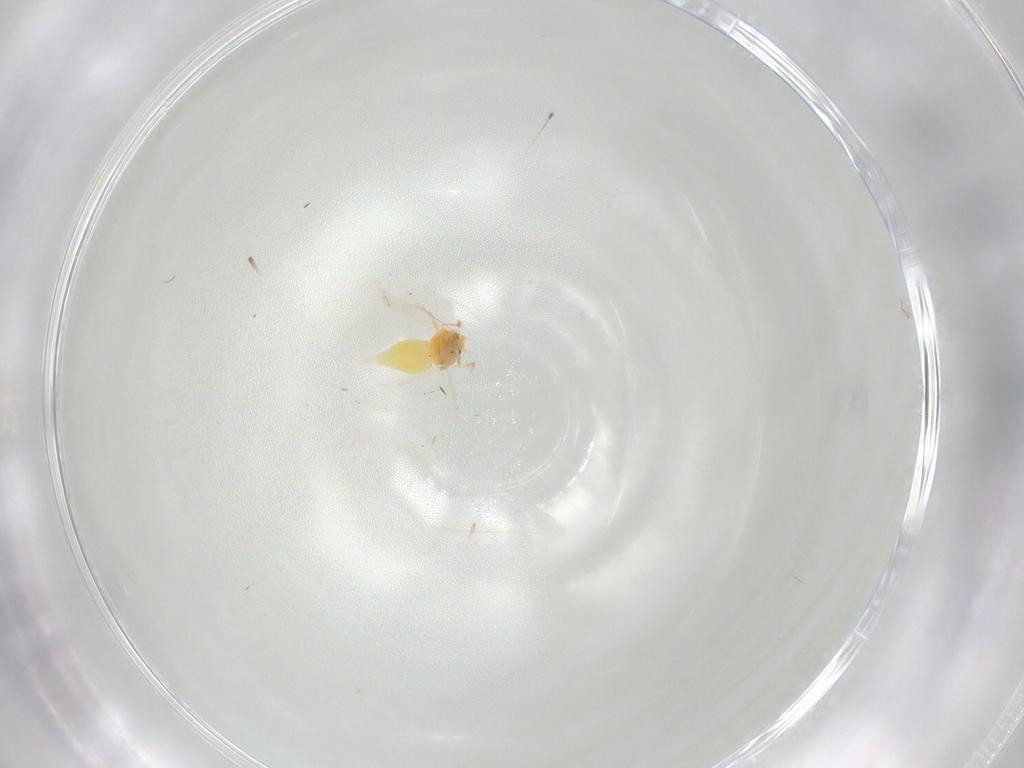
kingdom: Animalia
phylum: Arthropoda
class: Insecta
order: Hemiptera
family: Aleyrodidae
